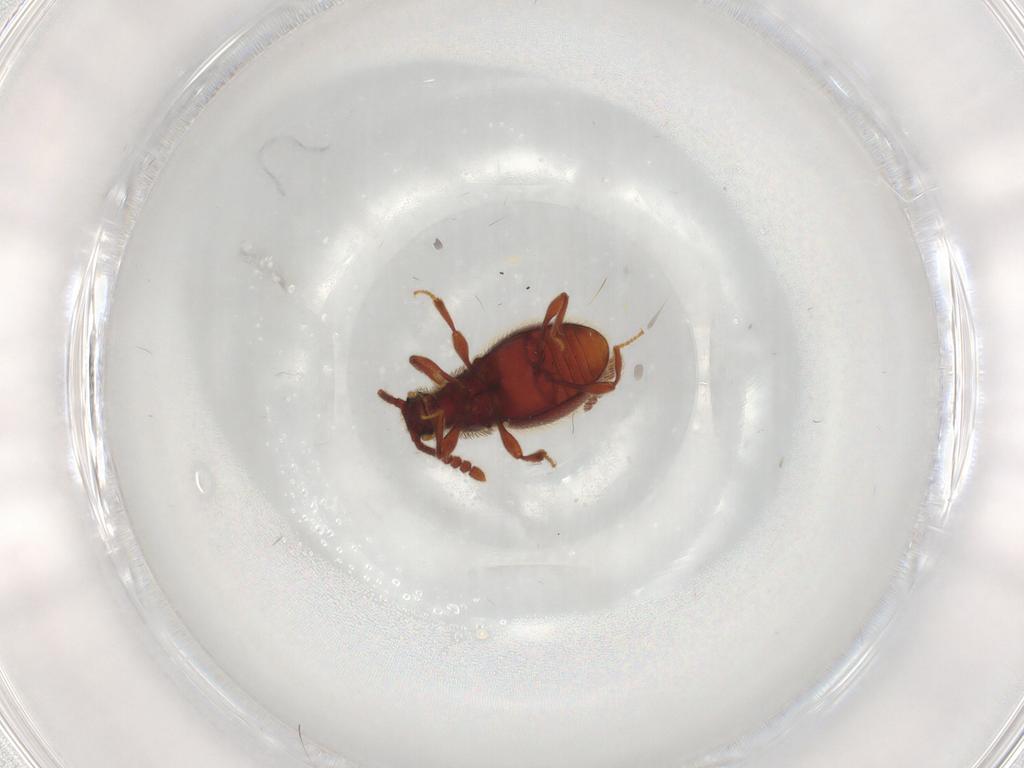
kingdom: Animalia
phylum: Arthropoda
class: Insecta
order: Coleoptera
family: Staphylinidae
